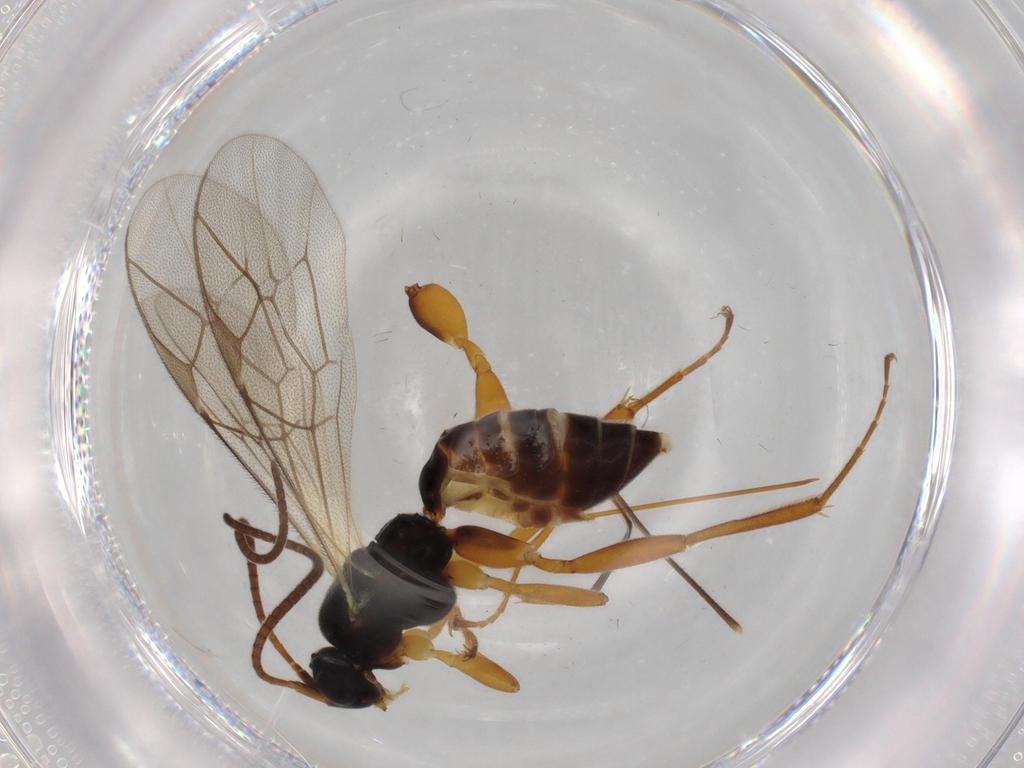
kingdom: Animalia
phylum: Arthropoda
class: Insecta
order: Hymenoptera
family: Ichneumonidae
